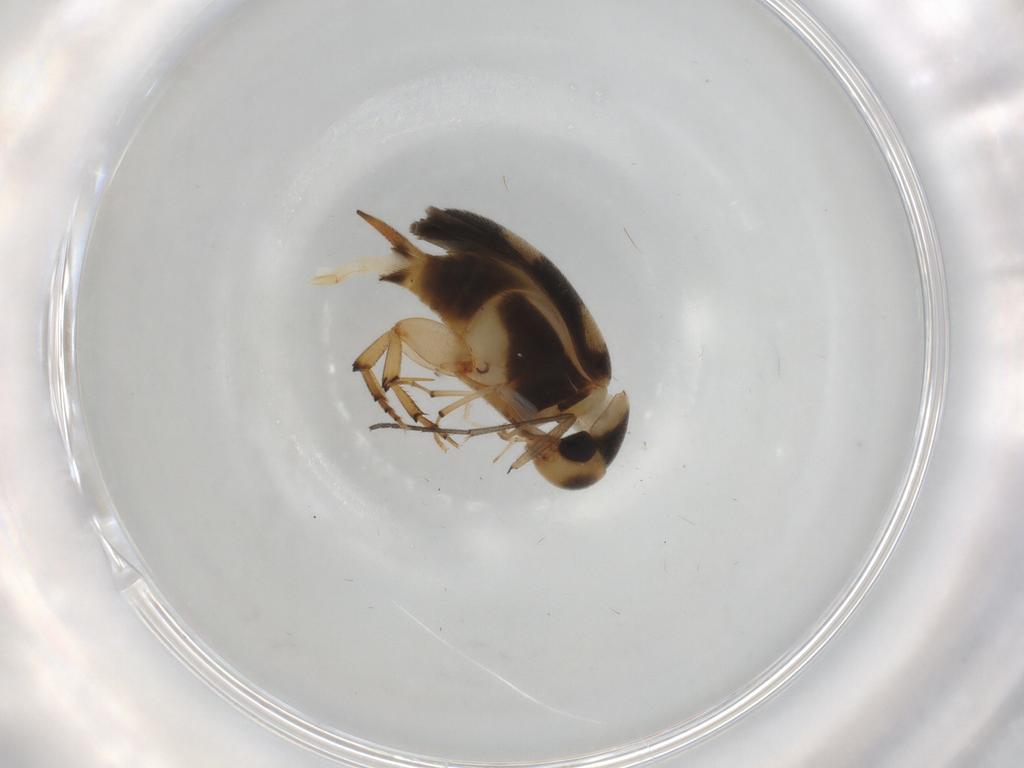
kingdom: Animalia
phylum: Arthropoda
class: Insecta
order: Coleoptera
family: Mordellidae
